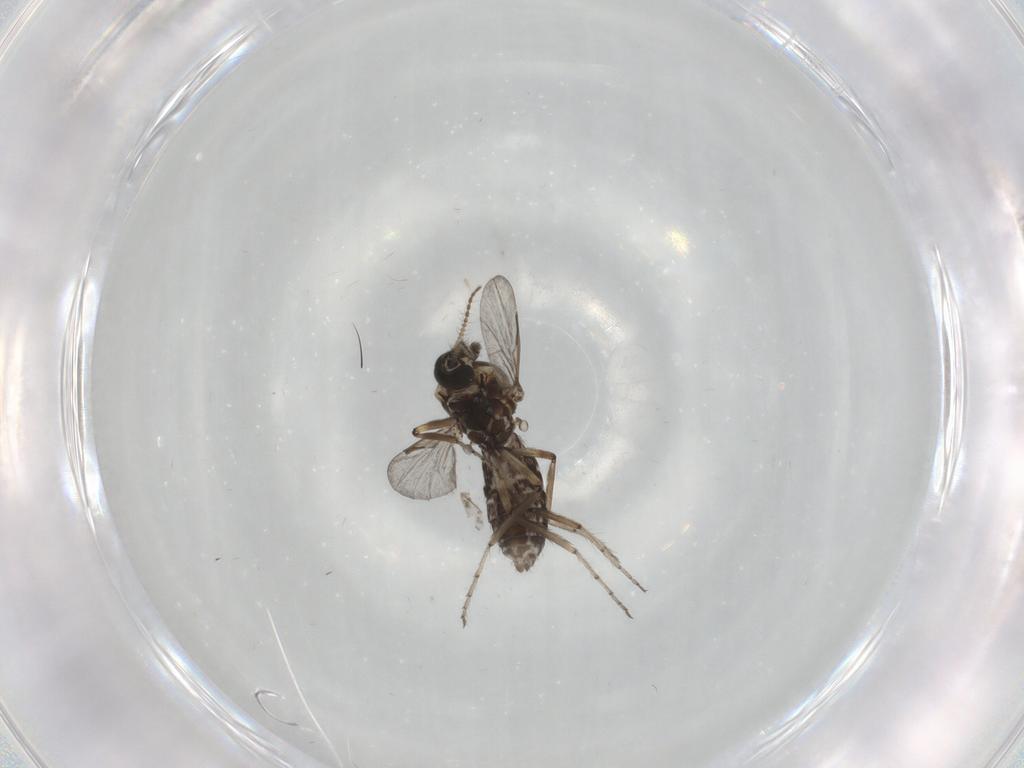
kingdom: Animalia
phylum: Arthropoda
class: Insecta
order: Diptera
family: Ceratopogonidae
